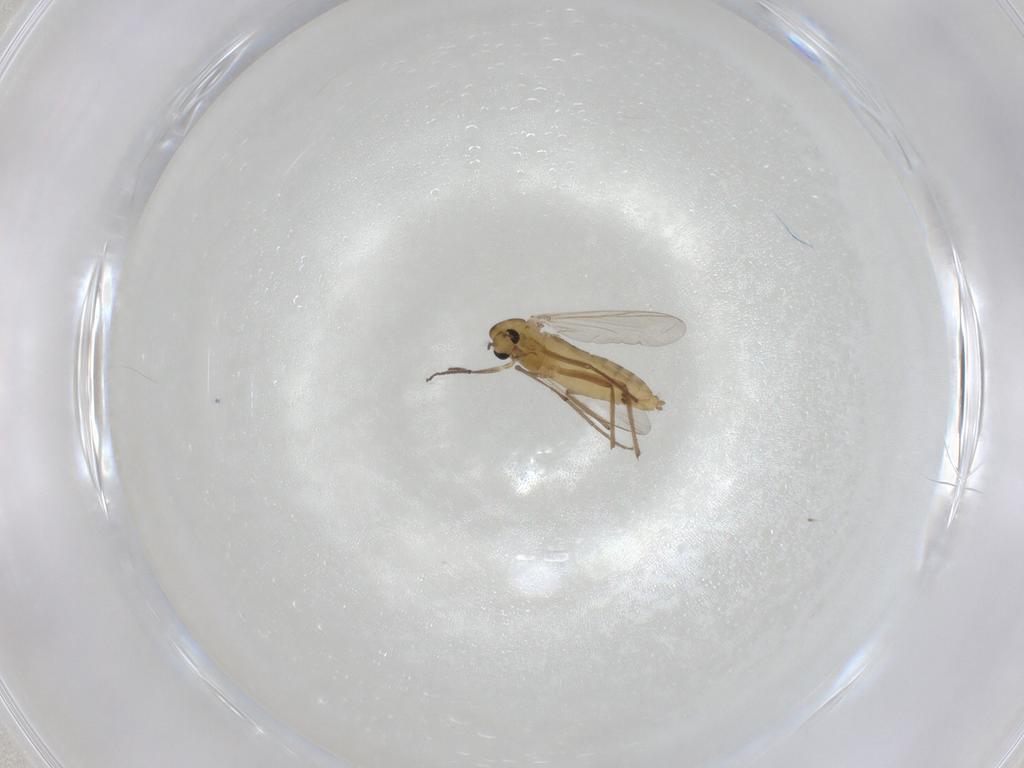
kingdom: Animalia
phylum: Arthropoda
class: Insecta
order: Diptera
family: Chironomidae
